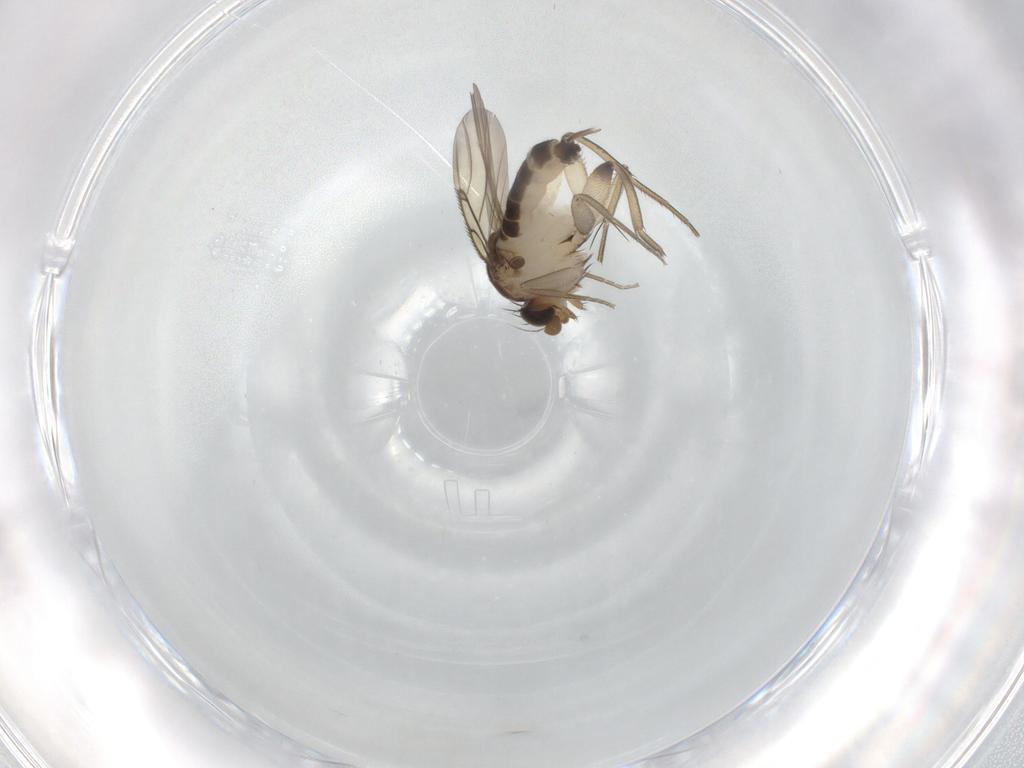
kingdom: Animalia
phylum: Arthropoda
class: Insecta
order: Diptera
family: Phoridae
